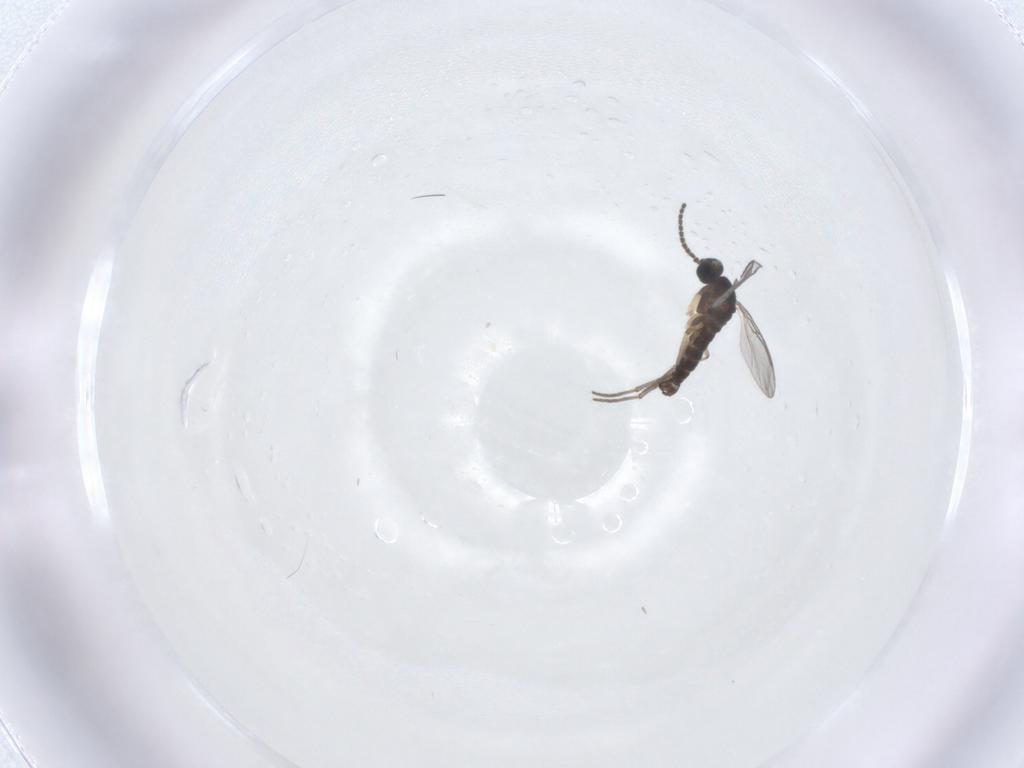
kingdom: Animalia
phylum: Arthropoda
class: Insecta
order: Diptera
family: Sciaridae
